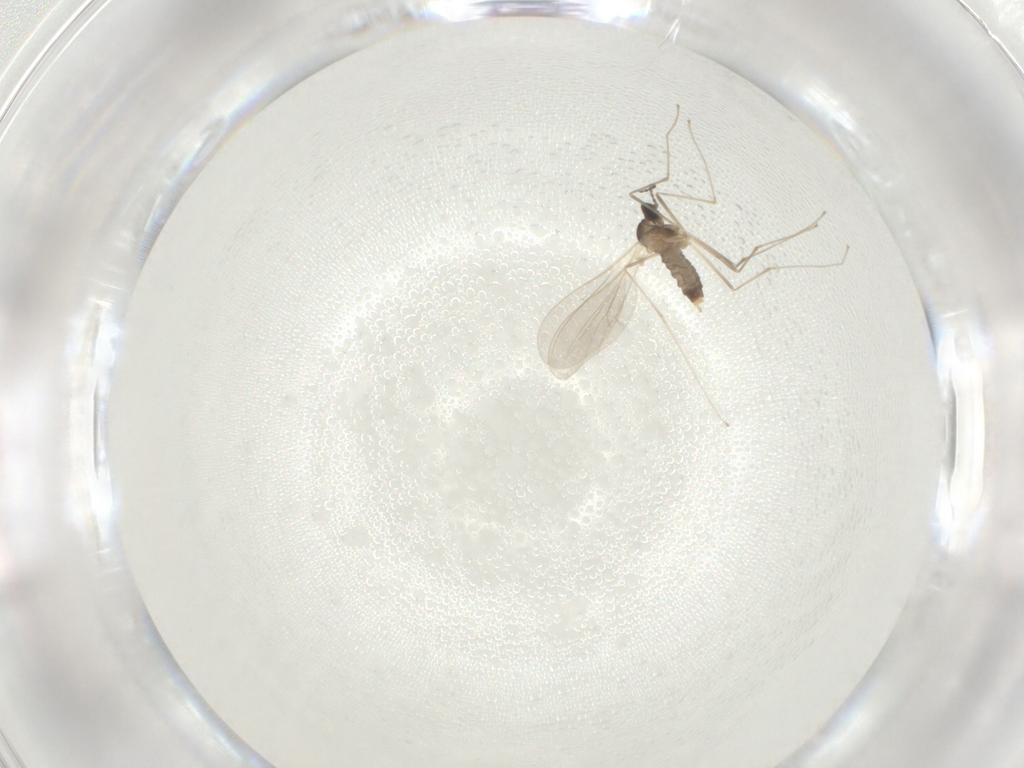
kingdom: Animalia
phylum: Arthropoda
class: Insecta
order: Diptera
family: Cecidomyiidae
